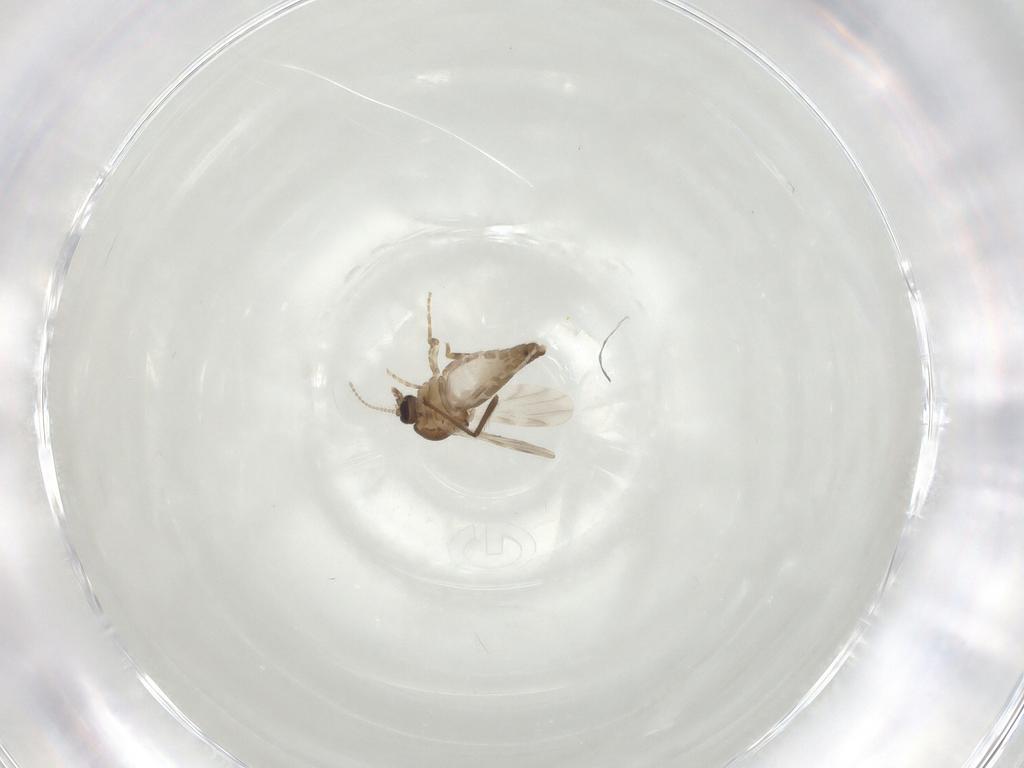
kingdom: Animalia
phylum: Arthropoda
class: Insecta
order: Diptera
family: Ceratopogonidae
